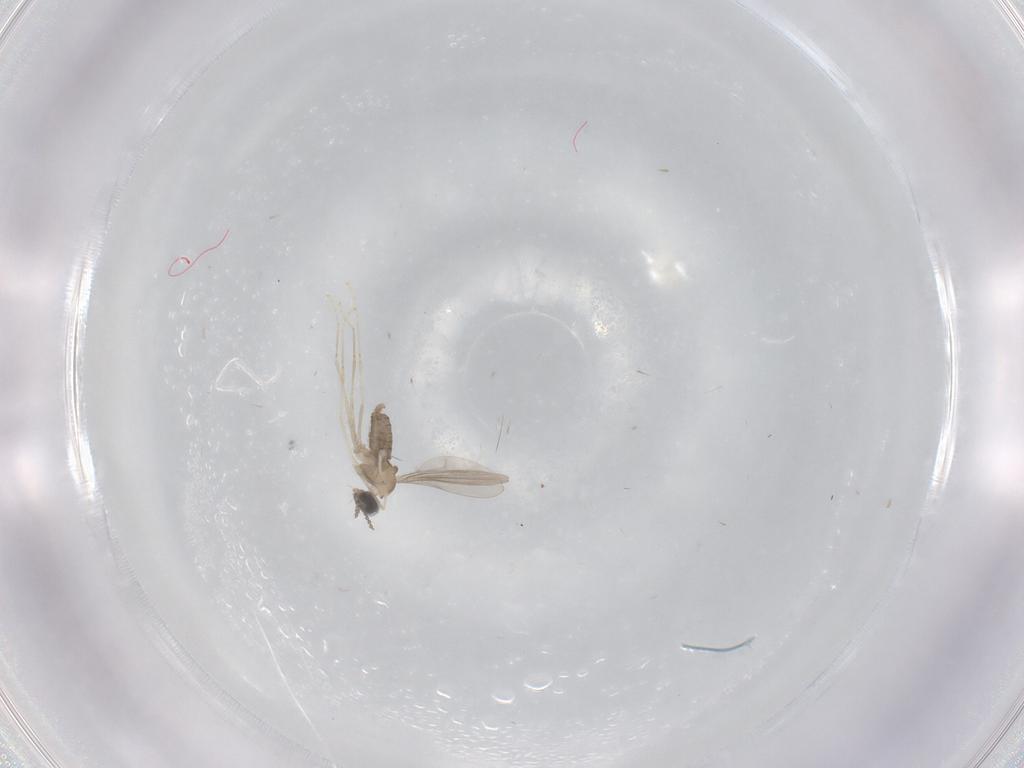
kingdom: Animalia
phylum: Arthropoda
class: Insecta
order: Diptera
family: Cecidomyiidae
